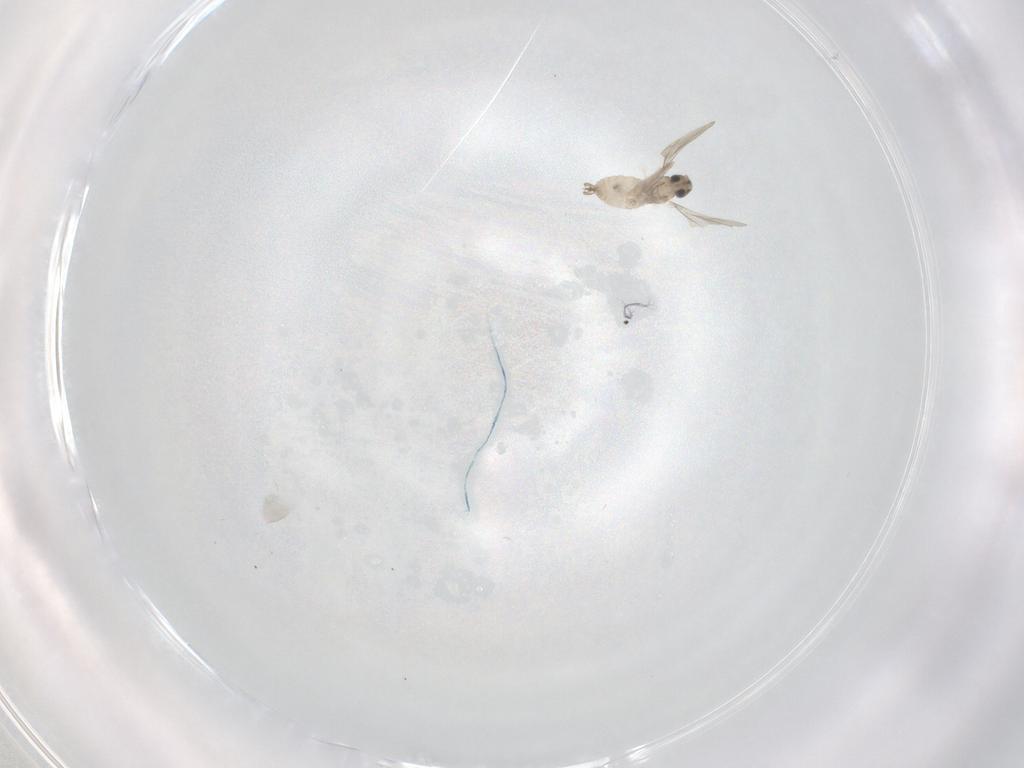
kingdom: Animalia
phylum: Arthropoda
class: Insecta
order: Diptera
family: Cecidomyiidae
